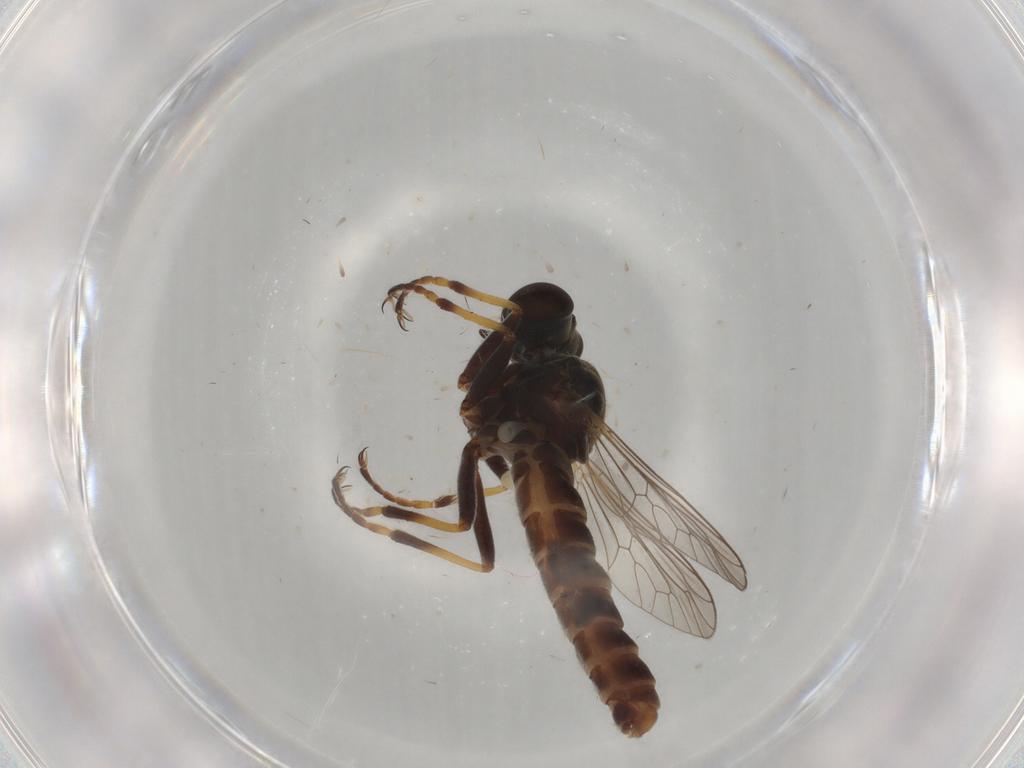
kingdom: Animalia
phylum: Arthropoda
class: Insecta
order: Diptera
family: Asilidae
